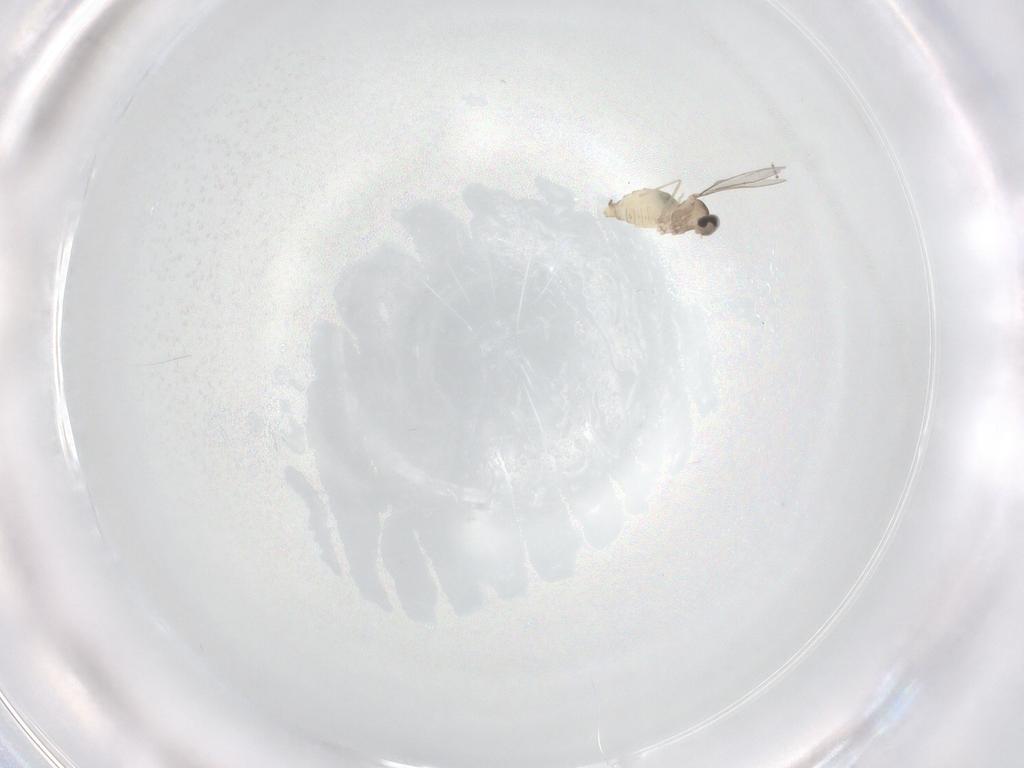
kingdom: Animalia
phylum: Arthropoda
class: Insecta
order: Diptera
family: Cecidomyiidae
